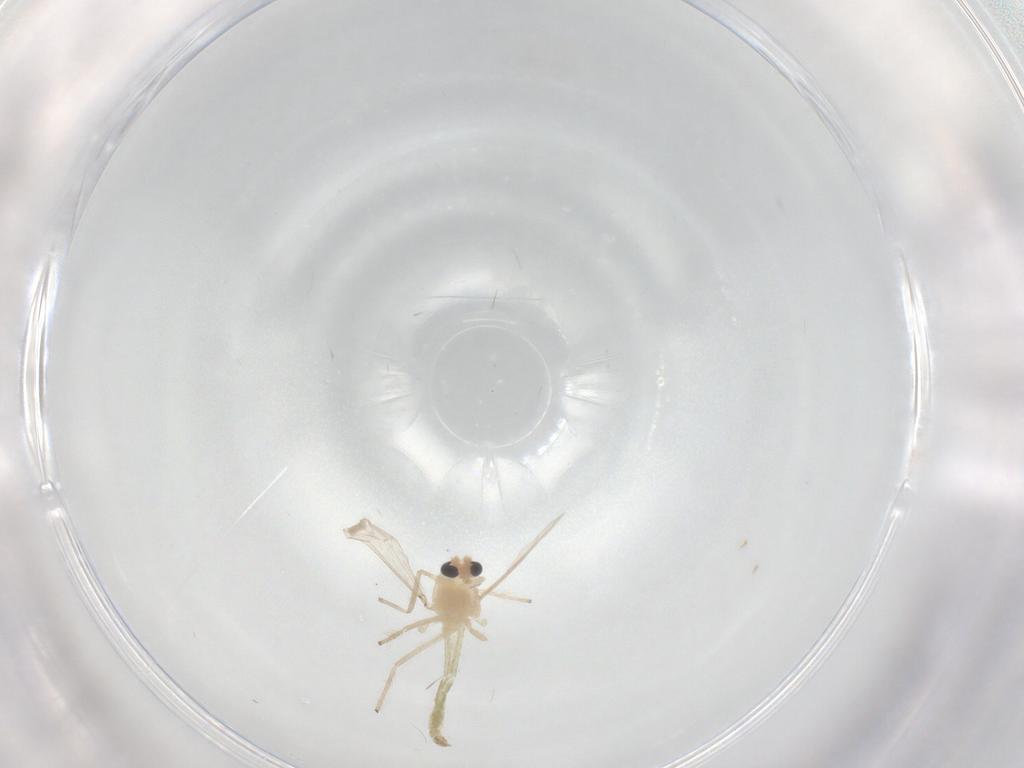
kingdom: Animalia
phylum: Arthropoda
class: Insecta
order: Diptera
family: Chironomidae
